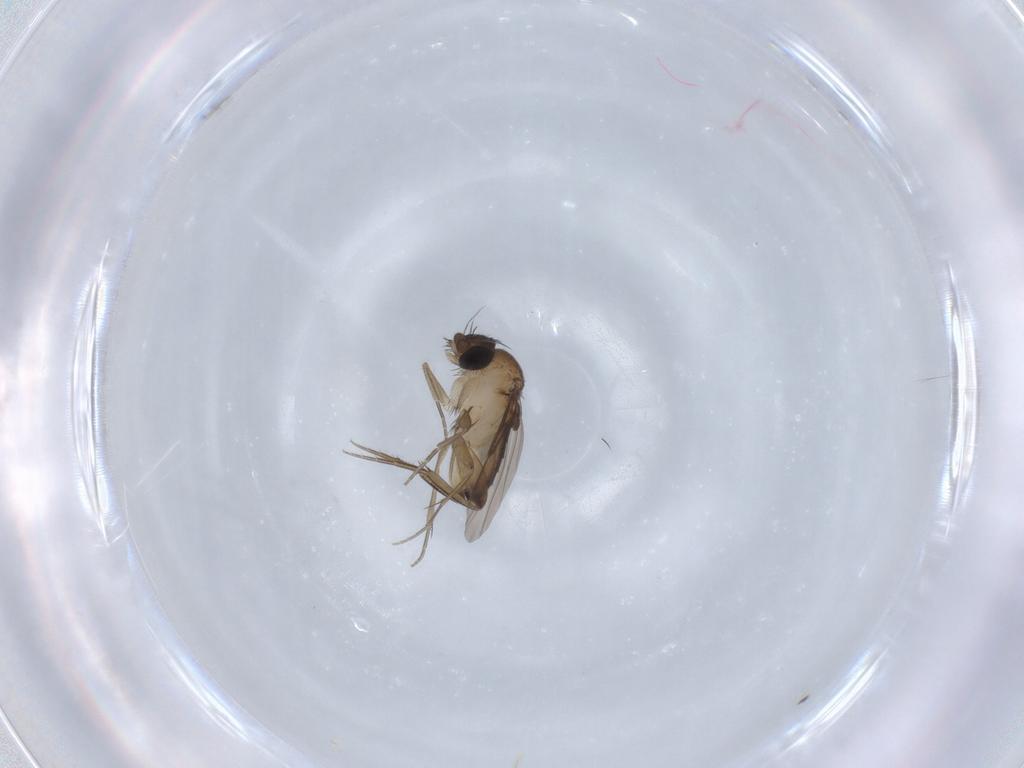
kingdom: Animalia
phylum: Arthropoda
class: Insecta
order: Diptera
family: Phoridae
